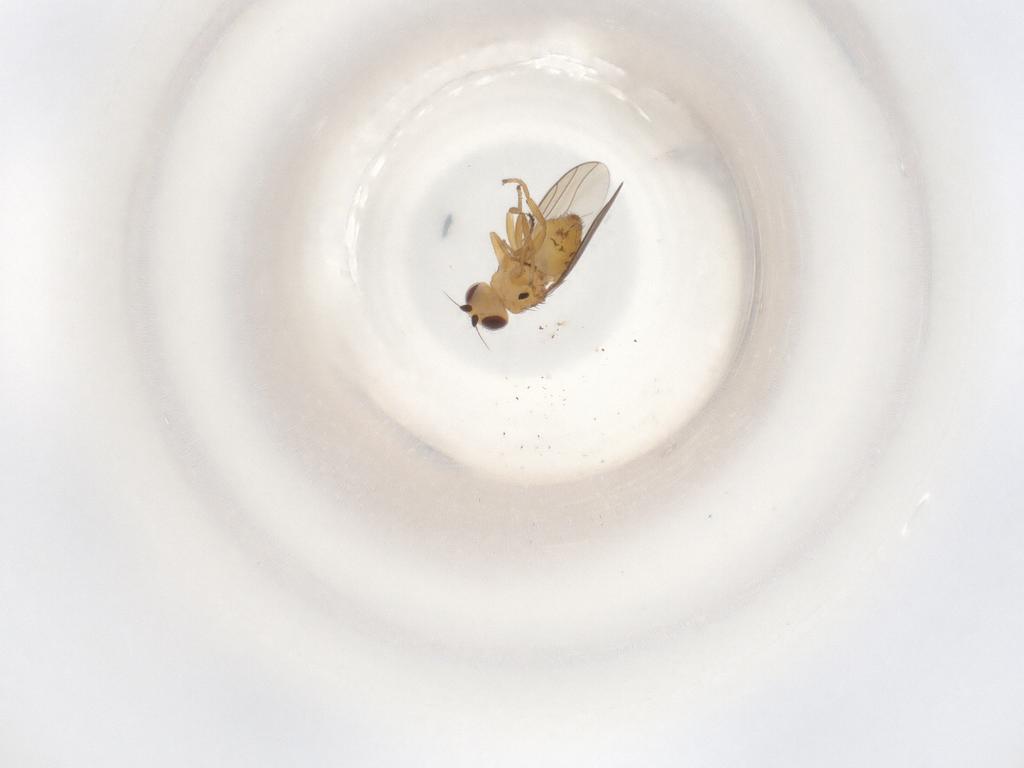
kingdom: Animalia
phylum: Arthropoda
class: Insecta
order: Diptera
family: Chloropidae
